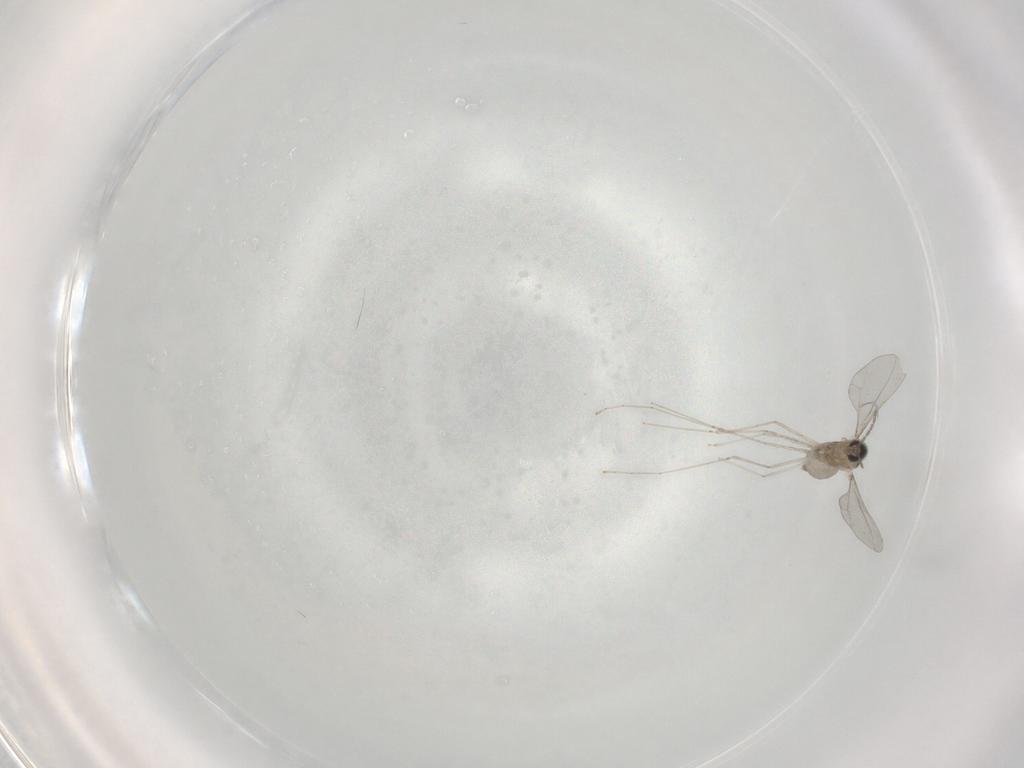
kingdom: Animalia
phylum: Arthropoda
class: Insecta
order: Diptera
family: Cecidomyiidae
